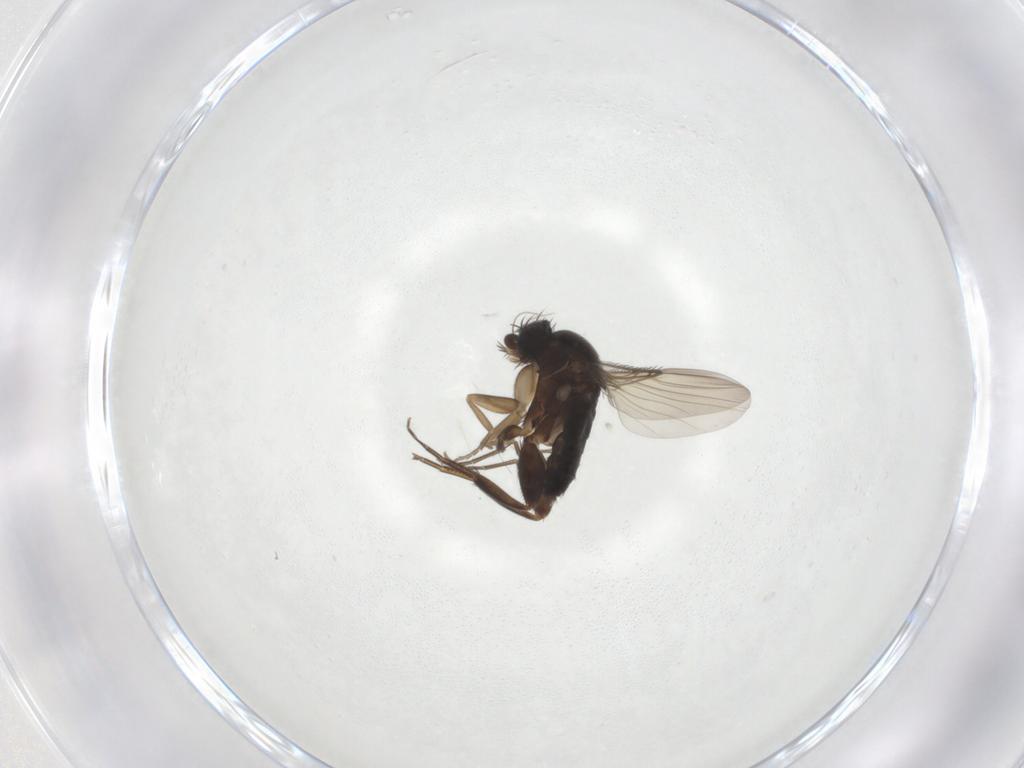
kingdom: Animalia
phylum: Arthropoda
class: Insecta
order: Diptera
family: Phoridae
